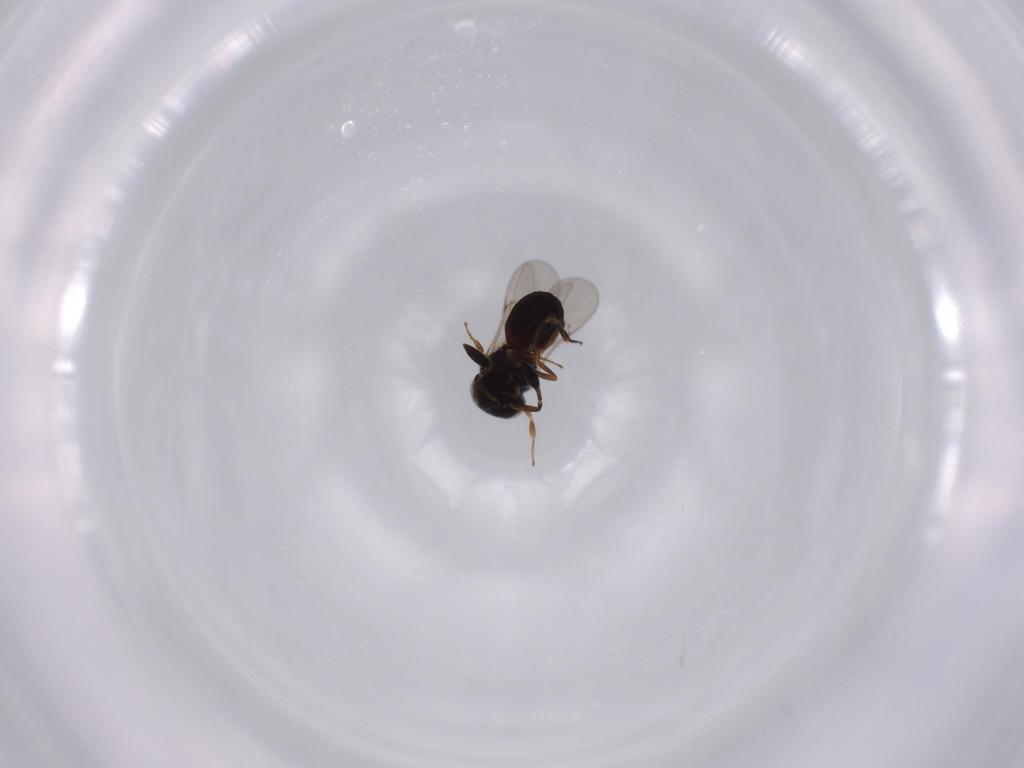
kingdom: Animalia
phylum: Arthropoda
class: Insecta
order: Hymenoptera
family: Scelionidae
